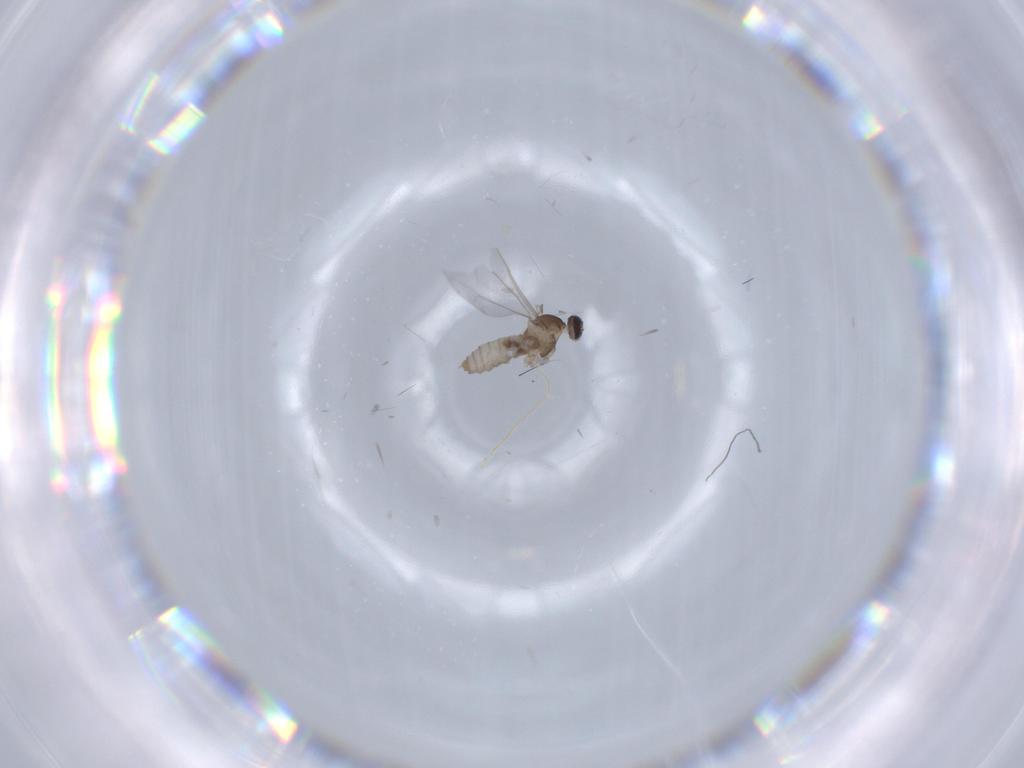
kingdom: Animalia
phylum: Arthropoda
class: Insecta
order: Diptera
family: Cecidomyiidae
